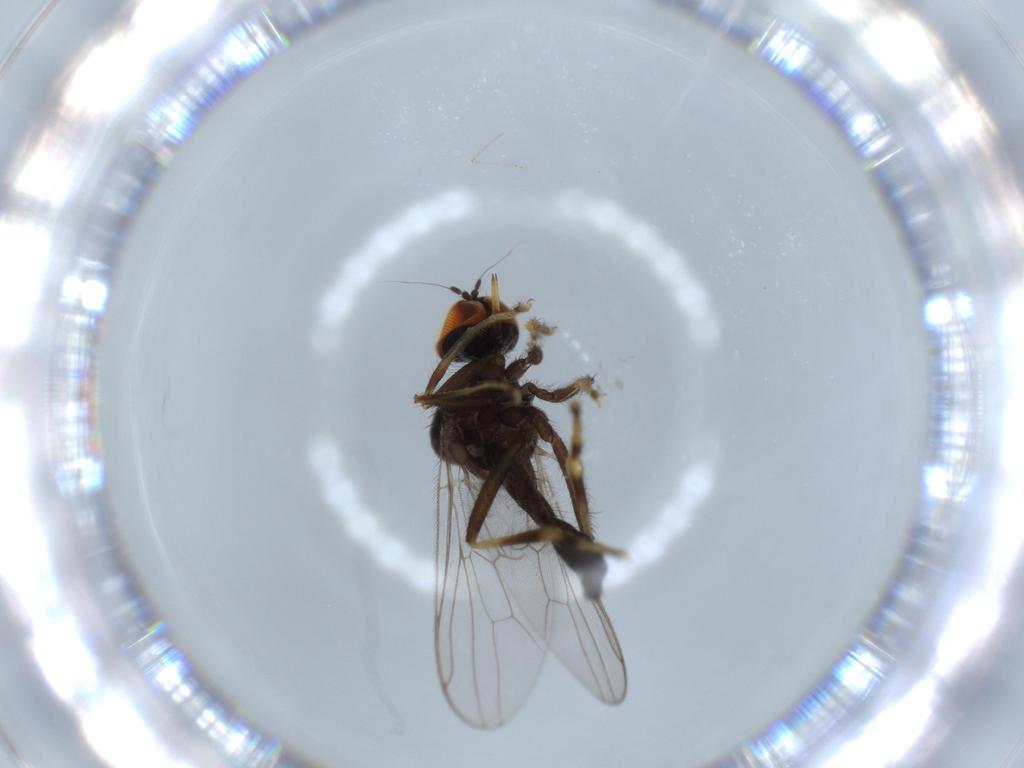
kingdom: Animalia
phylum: Arthropoda
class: Insecta
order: Diptera
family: Hybotidae
